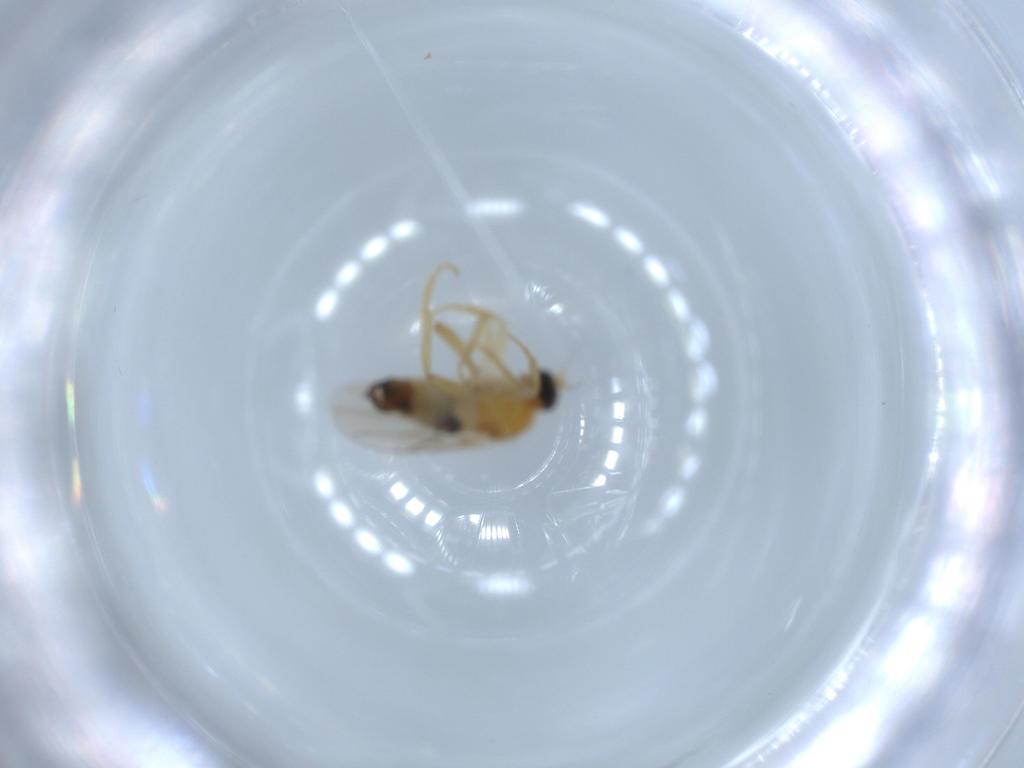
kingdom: Animalia
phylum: Arthropoda
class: Insecta
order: Diptera
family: Hybotidae
